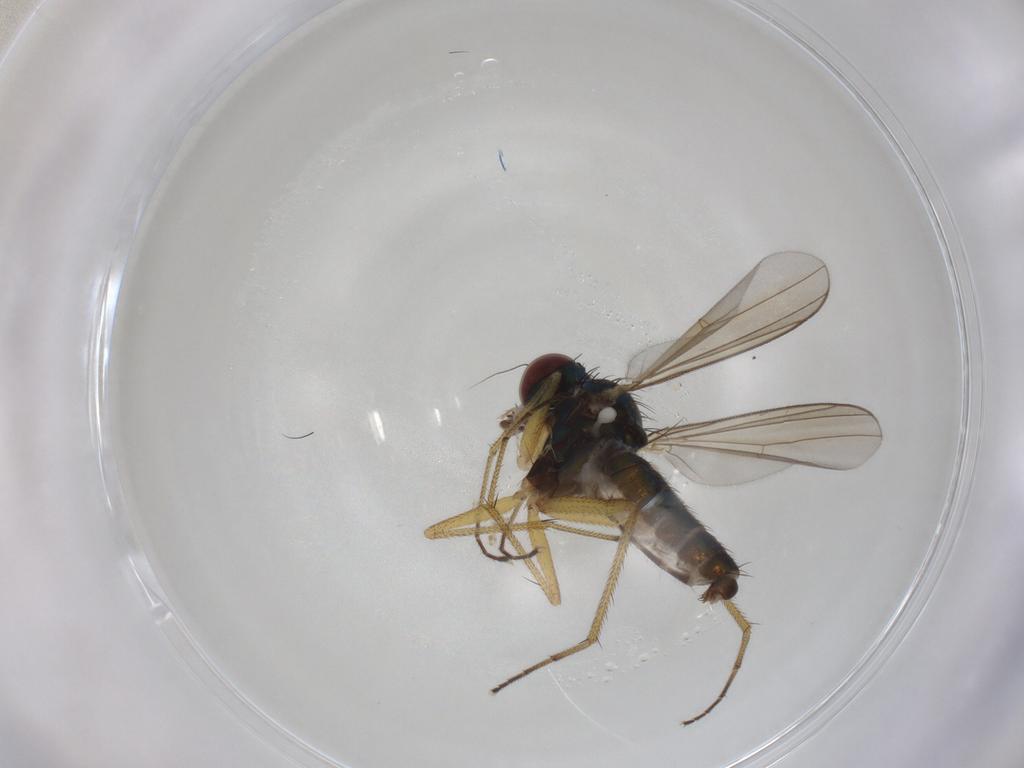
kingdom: Animalia
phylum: Arthropoda
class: Insecta
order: Diptera
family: Dolichopodidae
